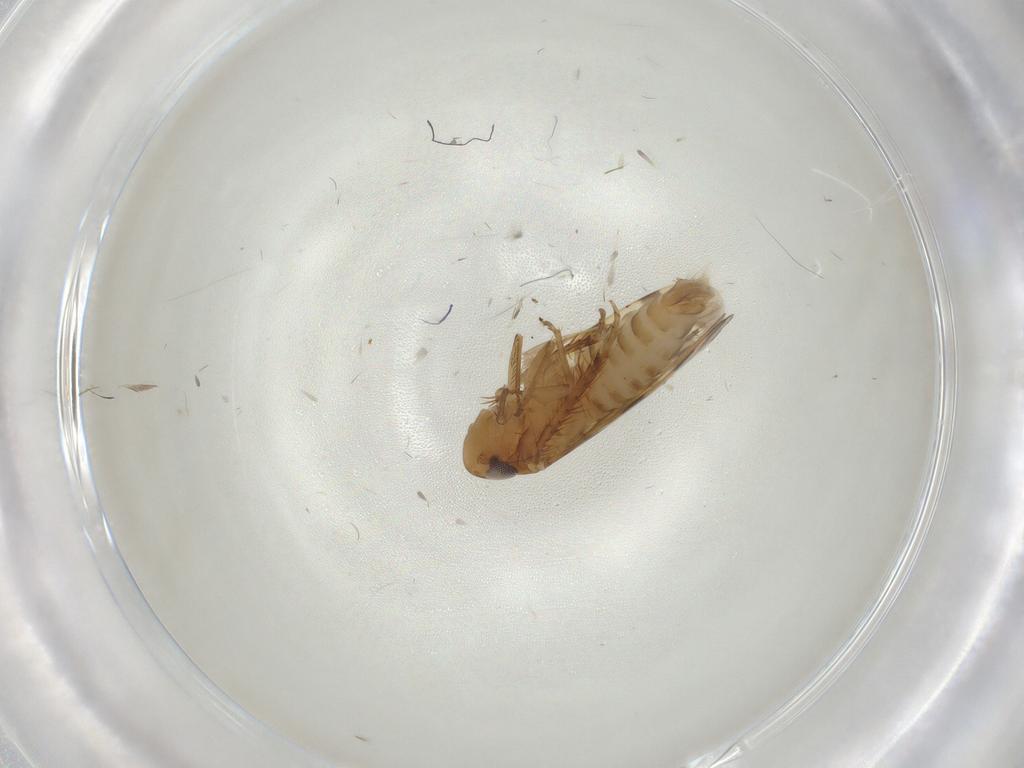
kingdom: Animalia
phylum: Arthropoda
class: Insecta
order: Hemiptera
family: Cicadellidae
